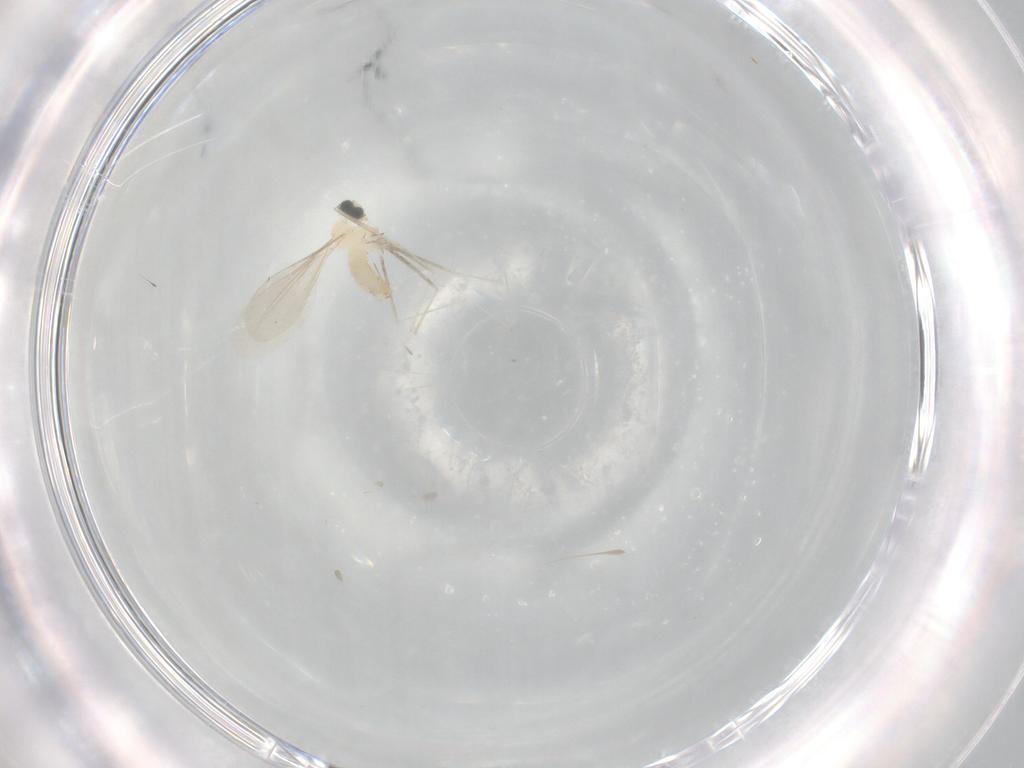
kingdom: Animalia
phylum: Arthropoda
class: Insecta
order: Diptera
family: Cecidomyiidae
